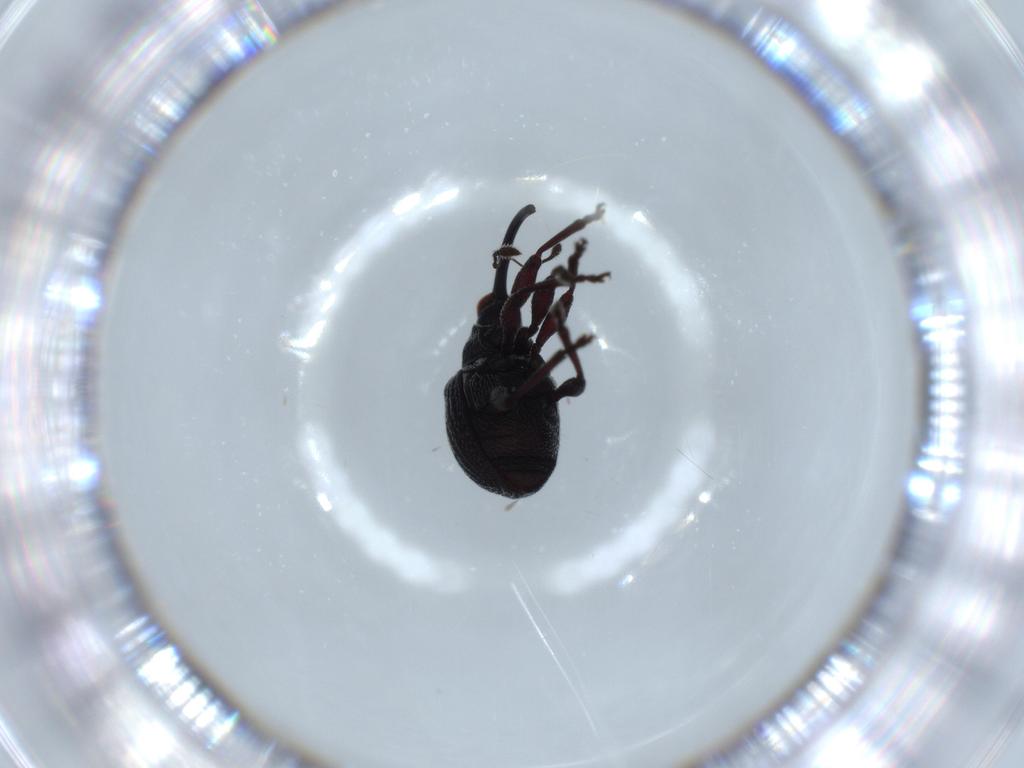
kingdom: Animalia
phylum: Arthropoda
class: Insecta
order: Coleoptera
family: Brentidae
